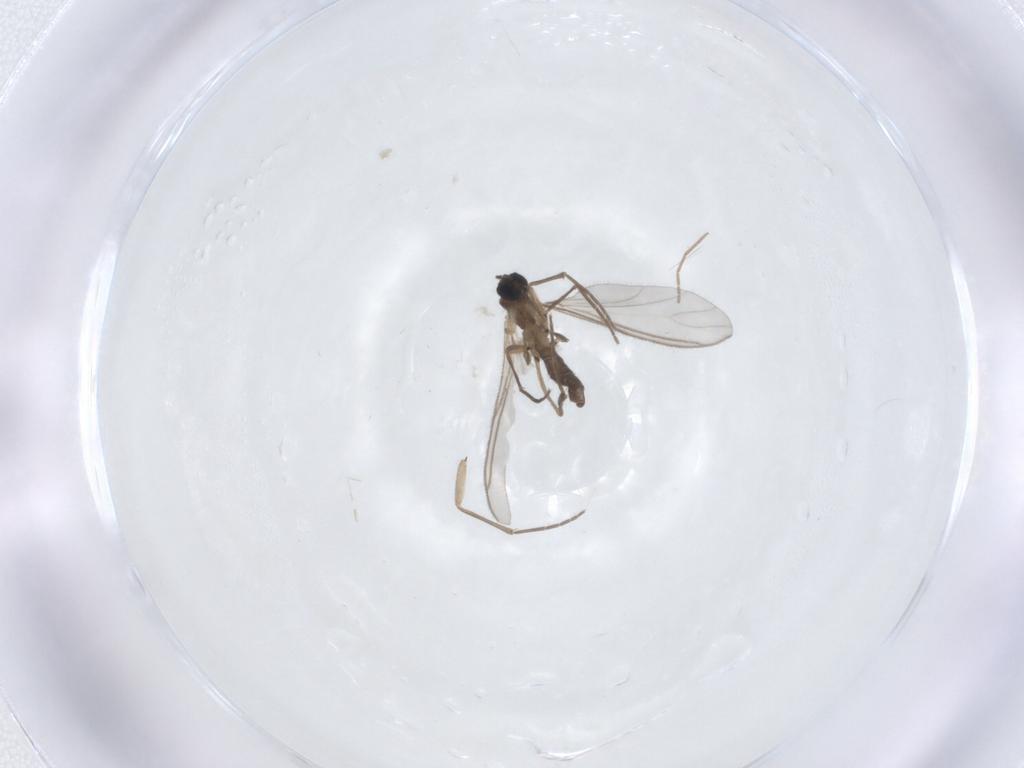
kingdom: Animalia
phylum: Arthropoda
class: Insecta
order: Diptera
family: Sciaridae
